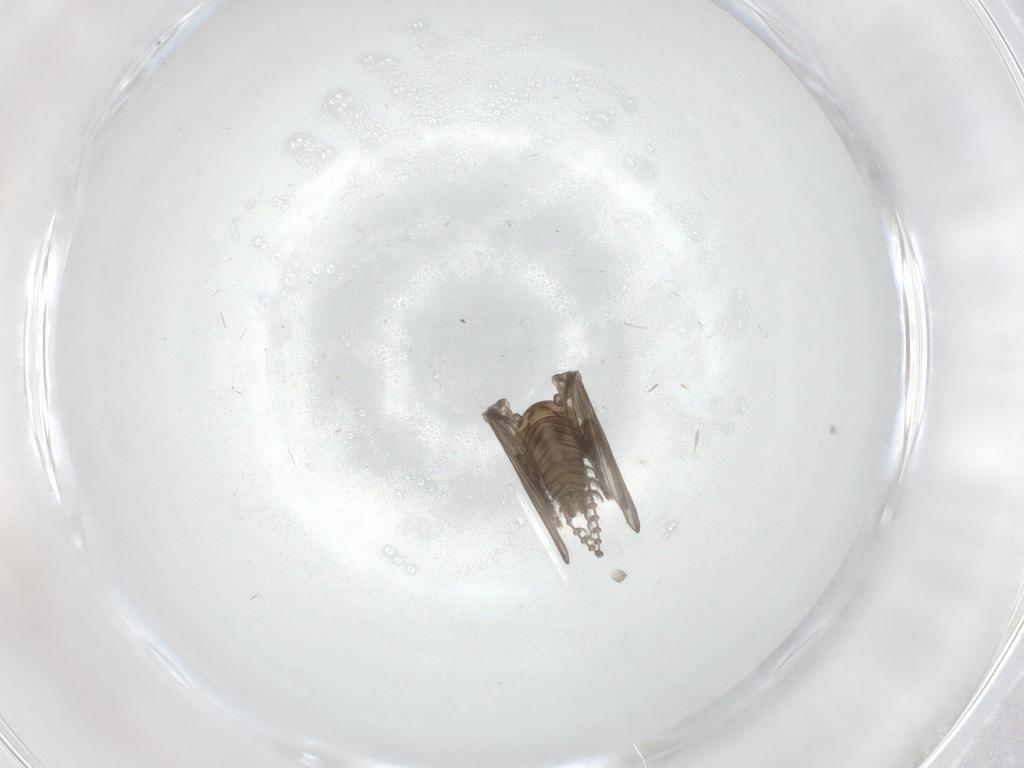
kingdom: Animalia
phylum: Arthropoda
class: Insecta
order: Diptera
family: Psychodidae
